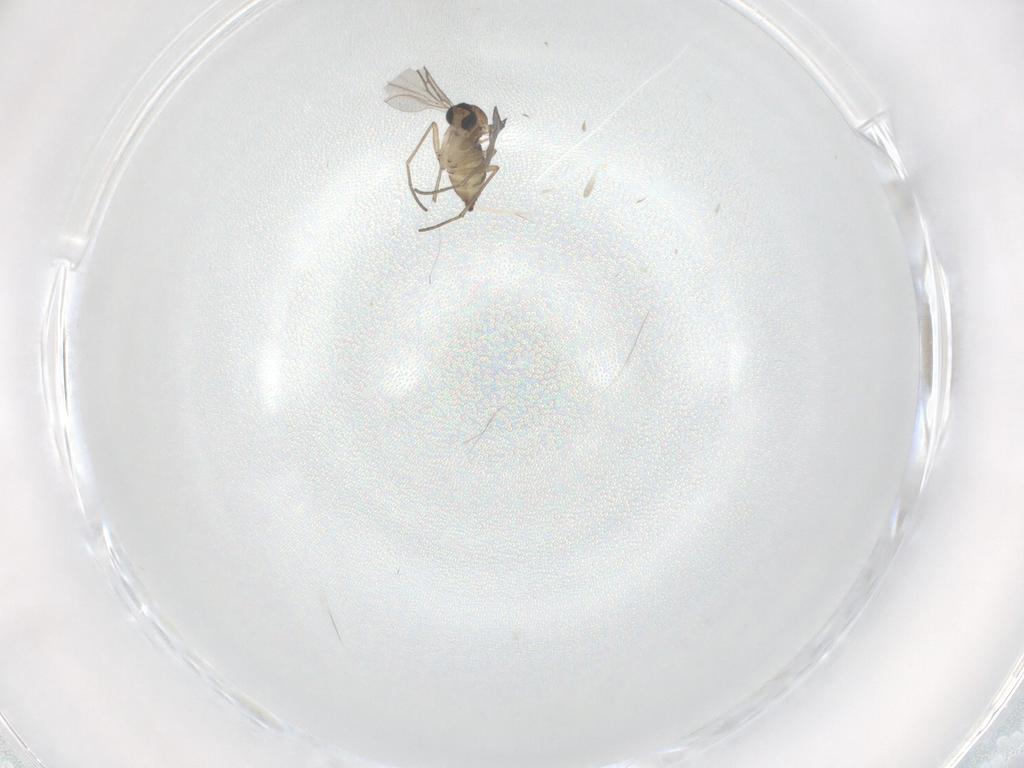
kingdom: Animalia
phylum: Arthropoda
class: Insecta
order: Diptera
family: Sciaridae
